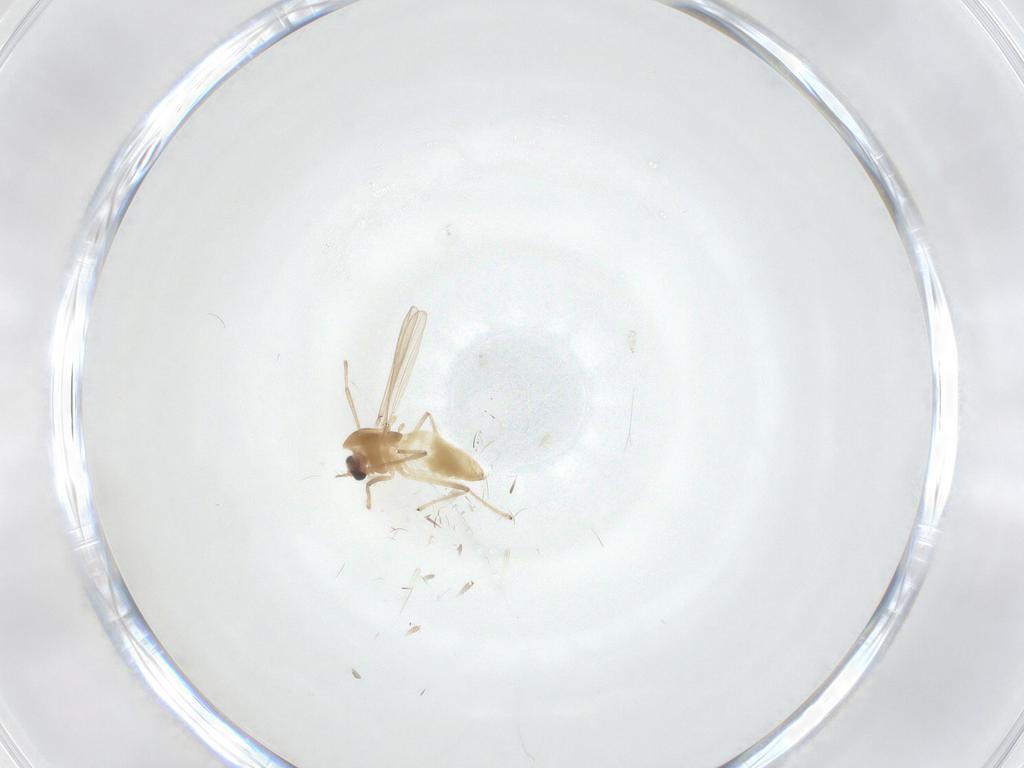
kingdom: Animalia
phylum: Arthropoda
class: Insecta
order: Diptera
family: Chironomidae
